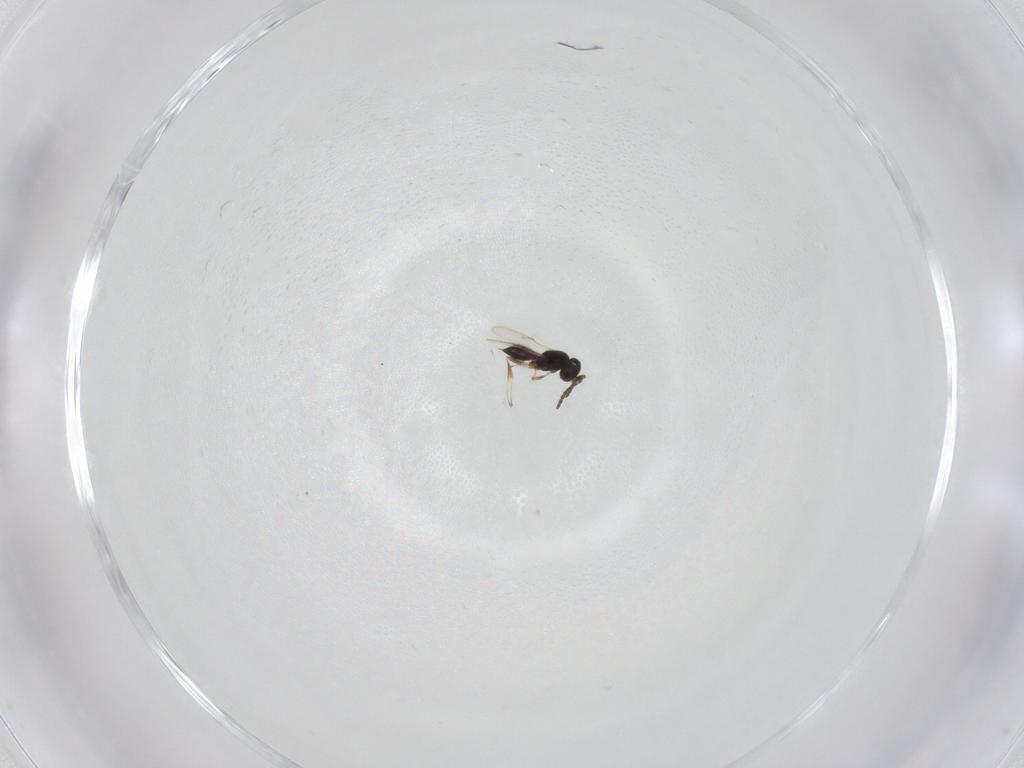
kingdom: Animalia
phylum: Arthropoda
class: Insecta
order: Hymenoptera
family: Scelionidae
